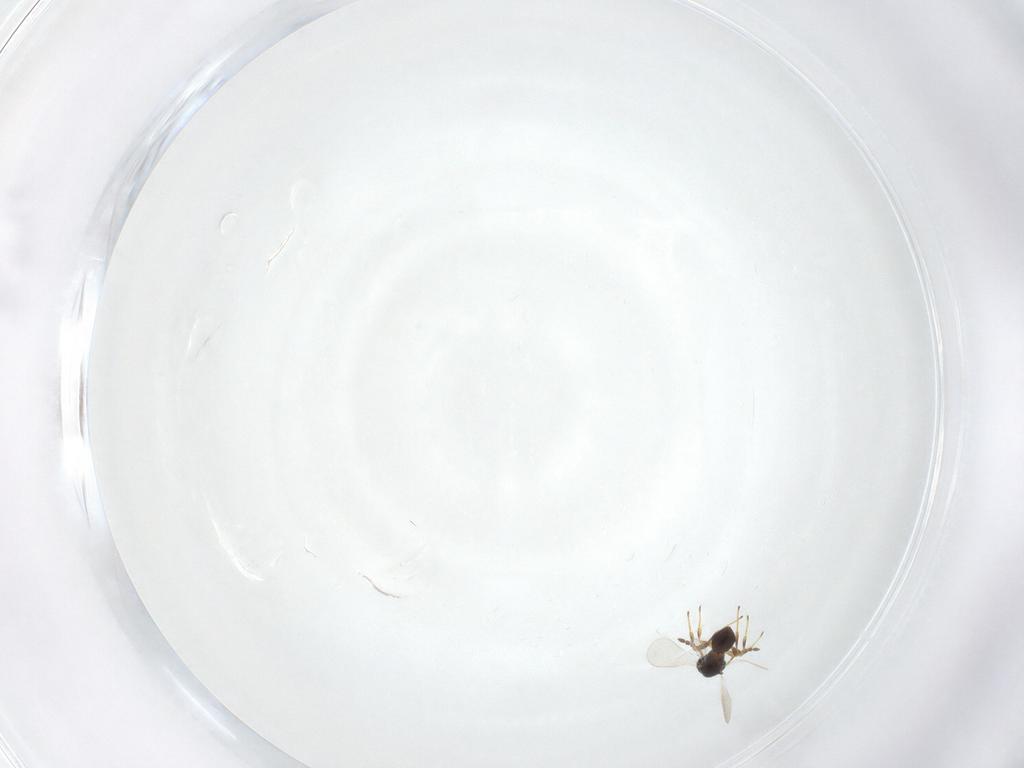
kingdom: Animalia
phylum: Arthropoda
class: Insecta
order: Hymenoptera
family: Platygastridae
